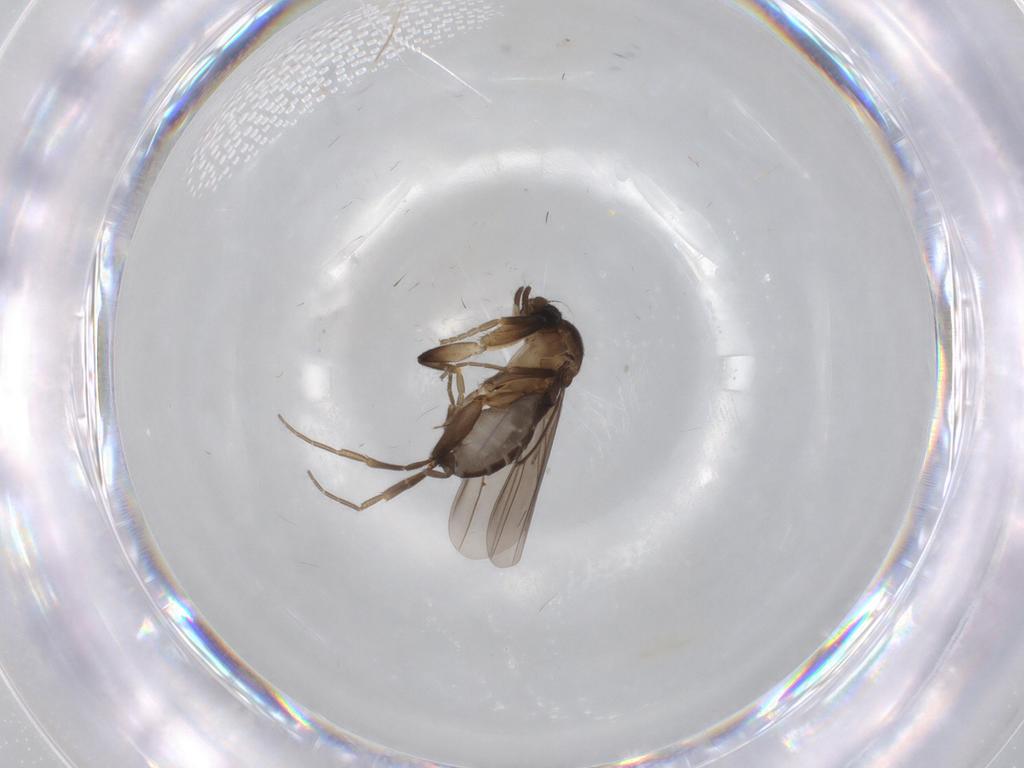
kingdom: Animalia
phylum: Arthropoda
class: Insecta
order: Diptera
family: Phoridae
